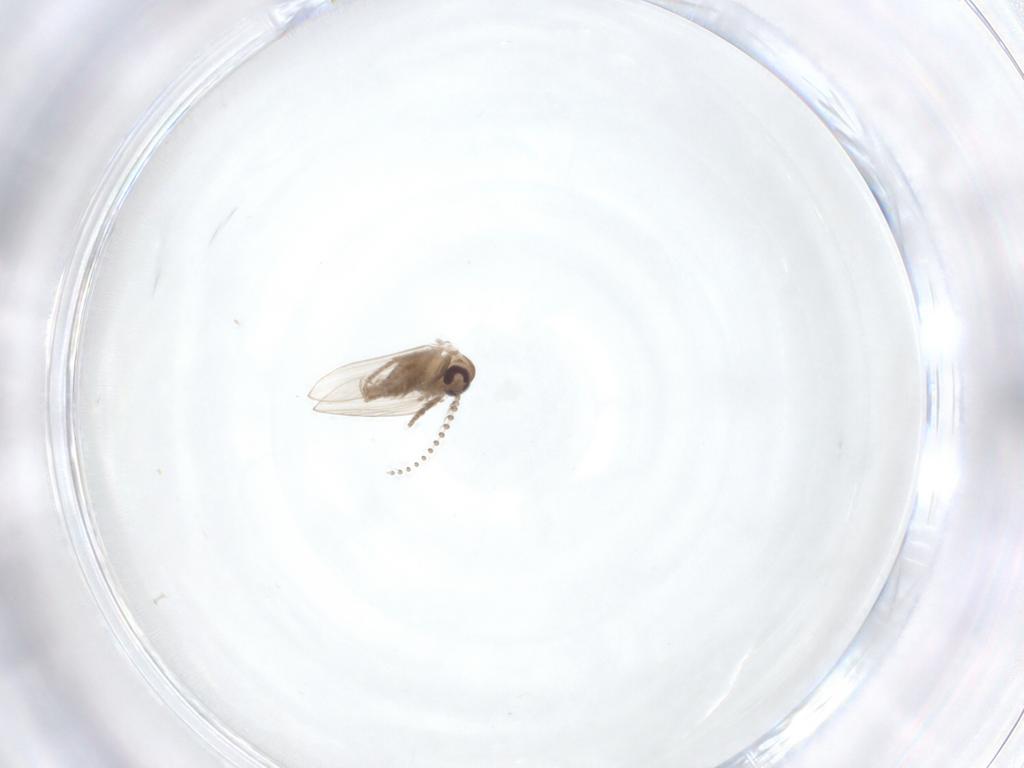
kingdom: Animalia
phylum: Arthropoda
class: Insecta
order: Diptera
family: Psychodidae
